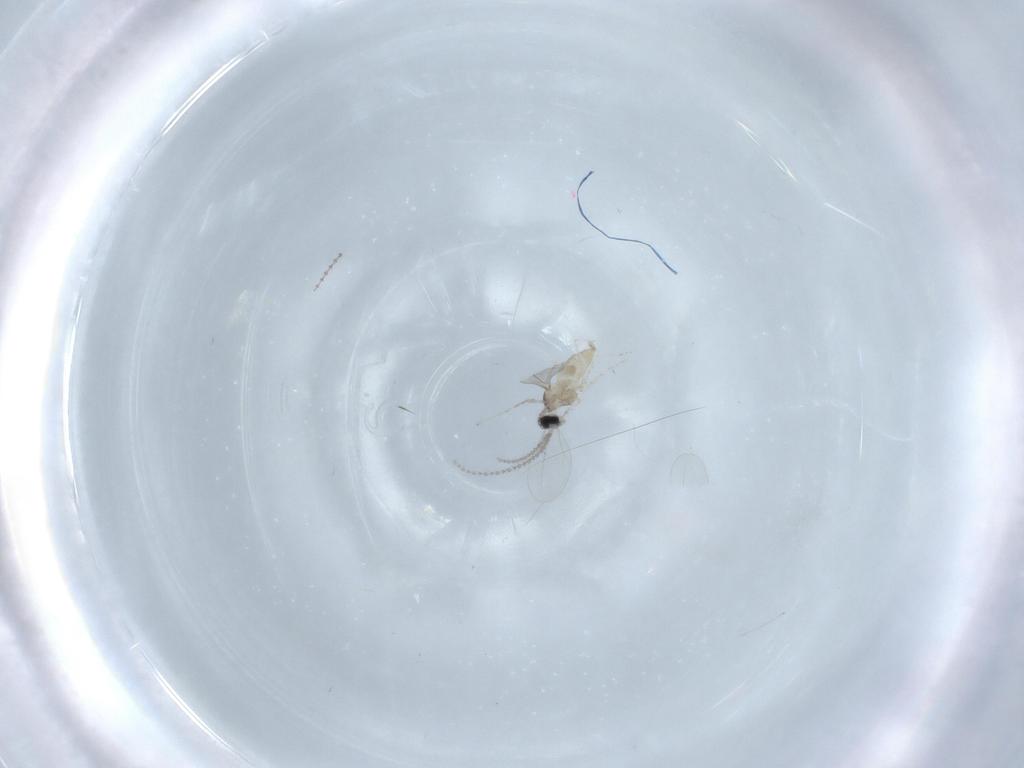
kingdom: Animalia
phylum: Arthropoda
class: Insecta
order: Diptera
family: Cecidomyiidae
